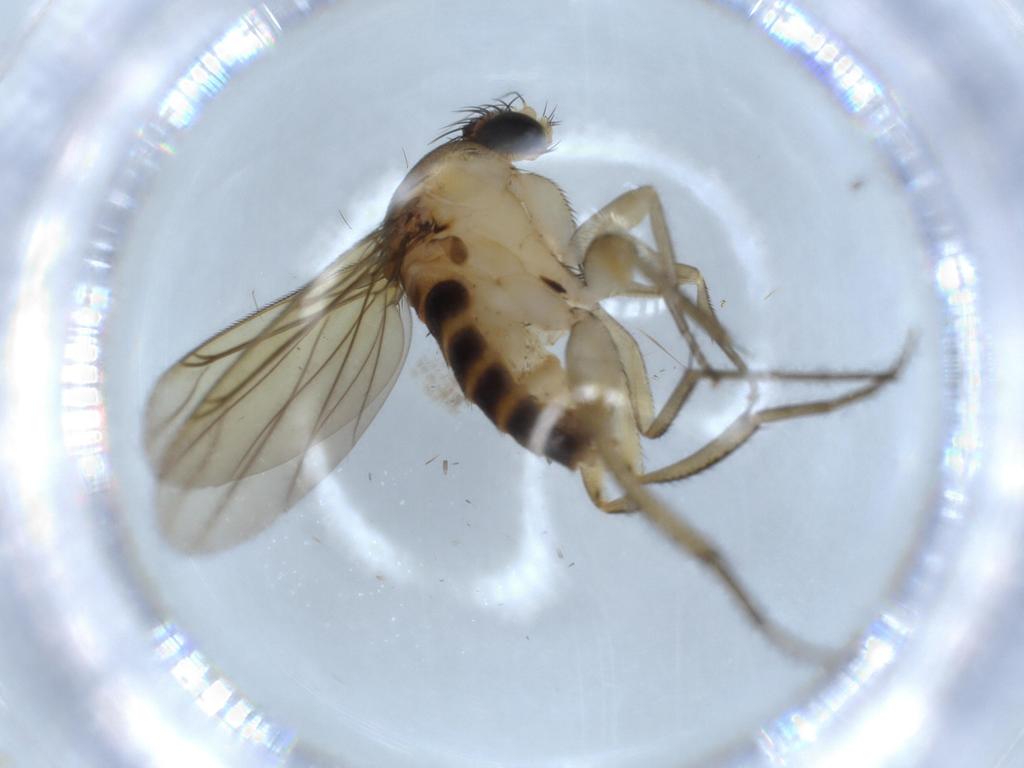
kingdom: Animalia
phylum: Arthropoda
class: Insecta
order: Diptera
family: Phoridae
